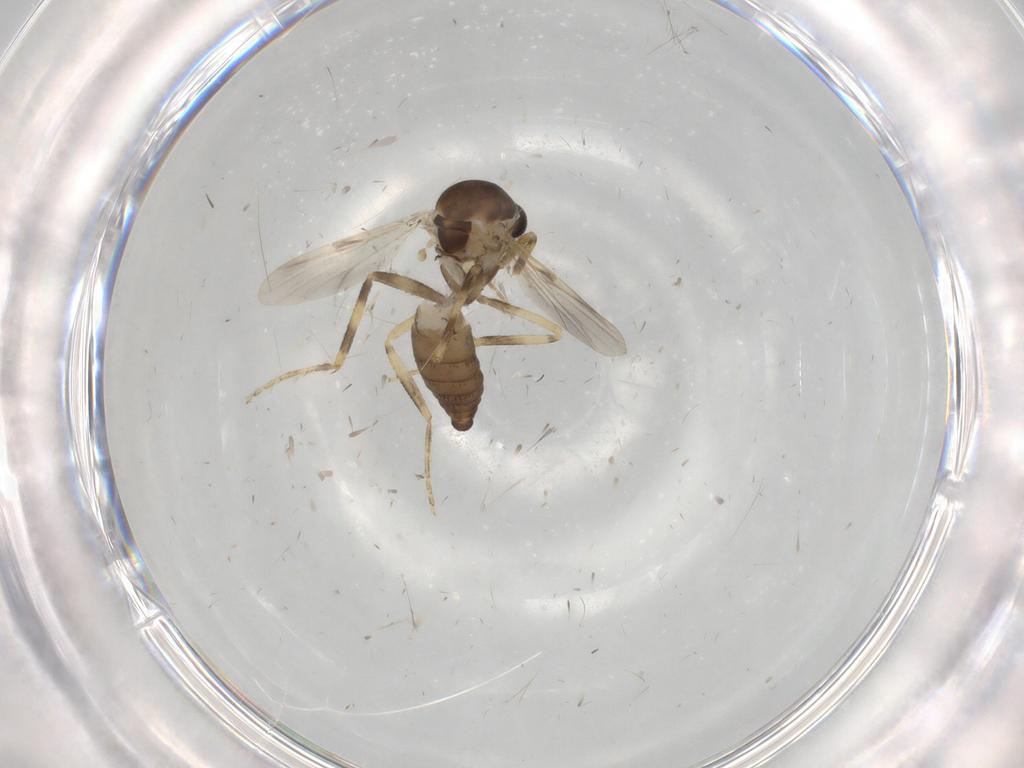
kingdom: Animalia
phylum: Arthropoda
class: Insecta
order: Diptera
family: Ceratopogonidae
